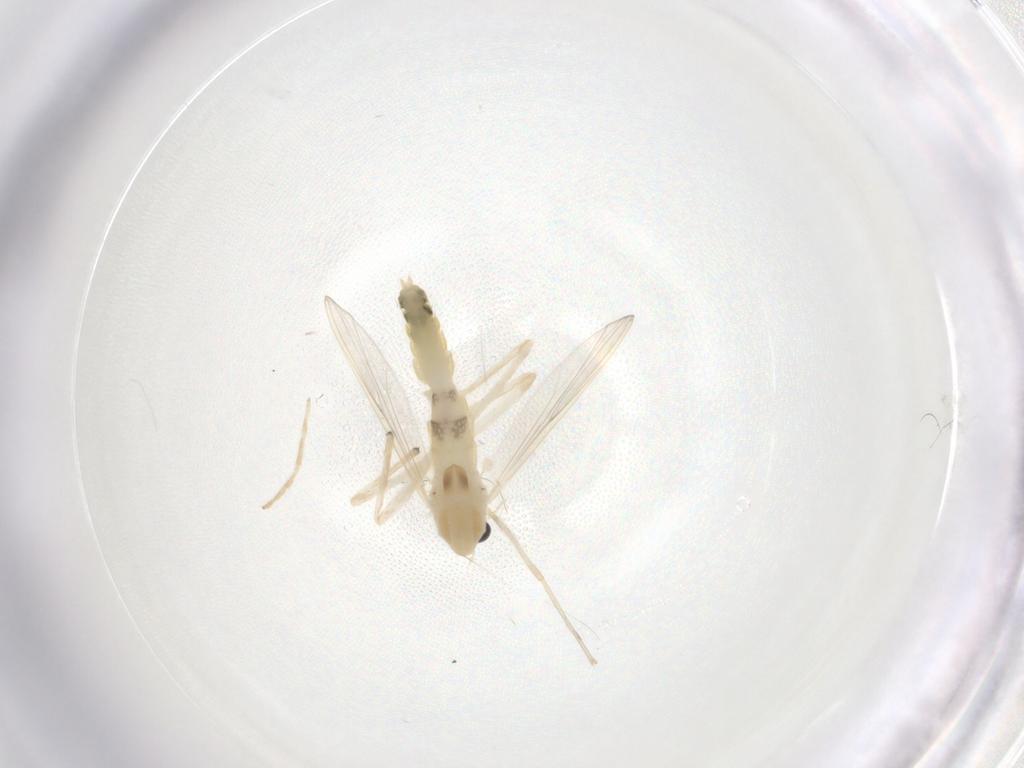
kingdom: Animalia
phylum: Arthropoda
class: Insecta
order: Diptera
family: Chironomidae
